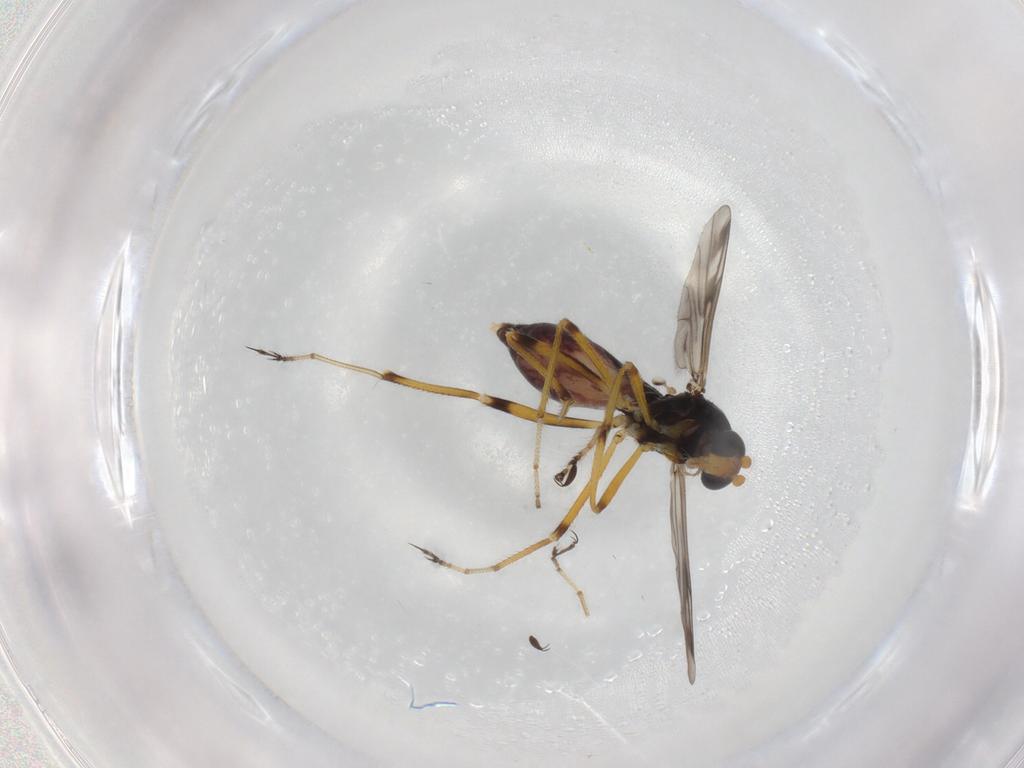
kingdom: Animalia
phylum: Arthropoda
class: Insecta
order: Diptera
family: Ceratopogonidae
